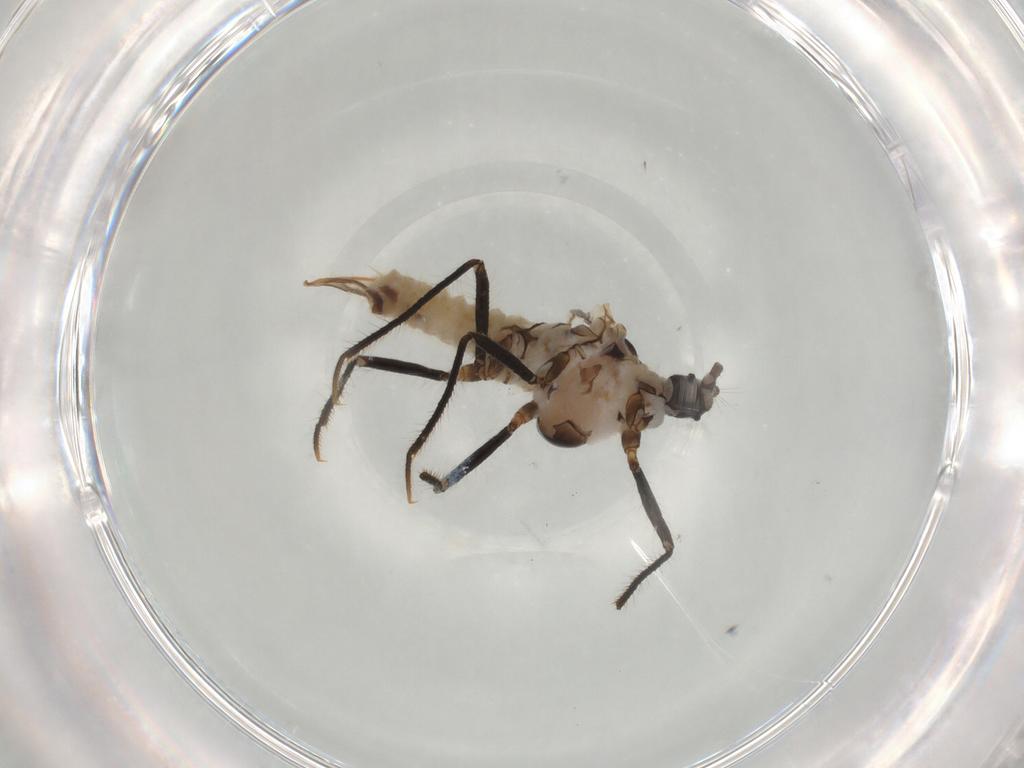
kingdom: Animalia
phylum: Arthropoda
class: Insecta
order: Hemiptera
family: Putoidae
